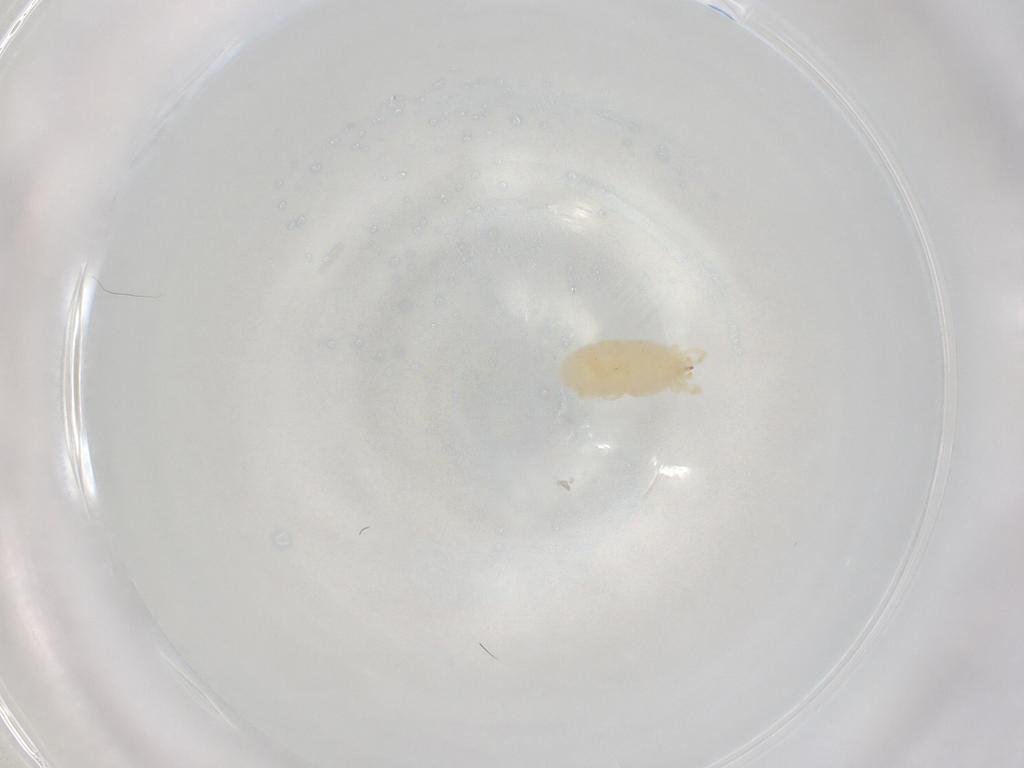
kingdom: Animalia
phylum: Arthropoda
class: Arachnida
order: Trombidiformes
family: Erythraeidae
